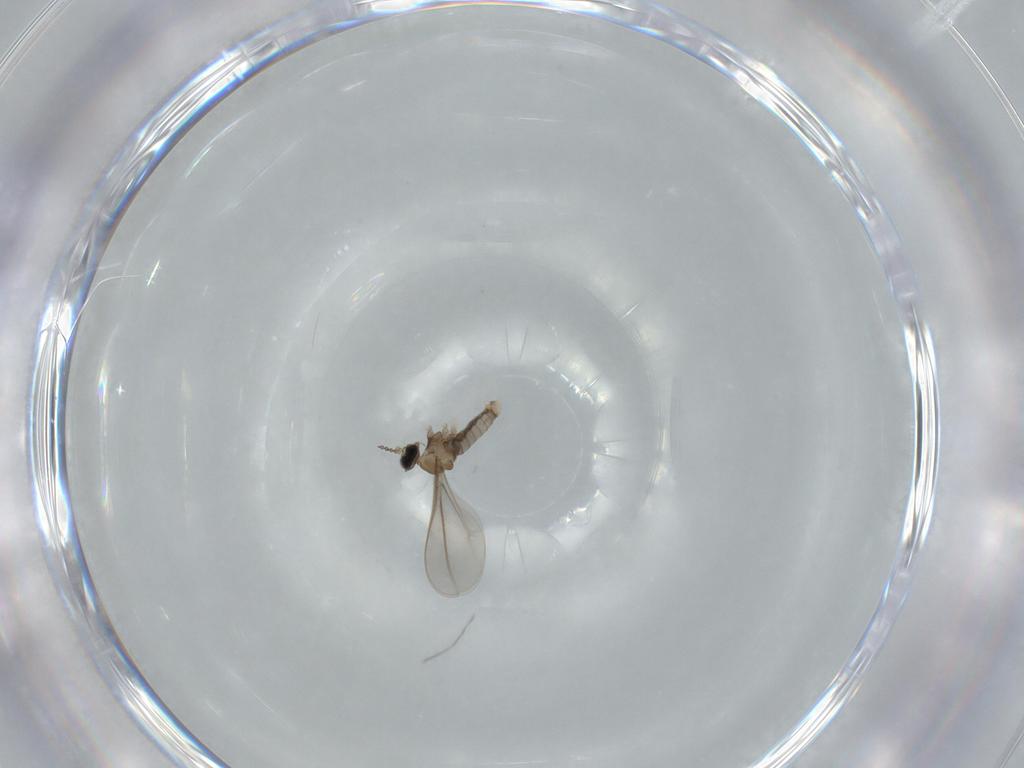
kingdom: Animalia
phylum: Arthropoda
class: Insecta
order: Diptera
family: Cecidomyiidae
